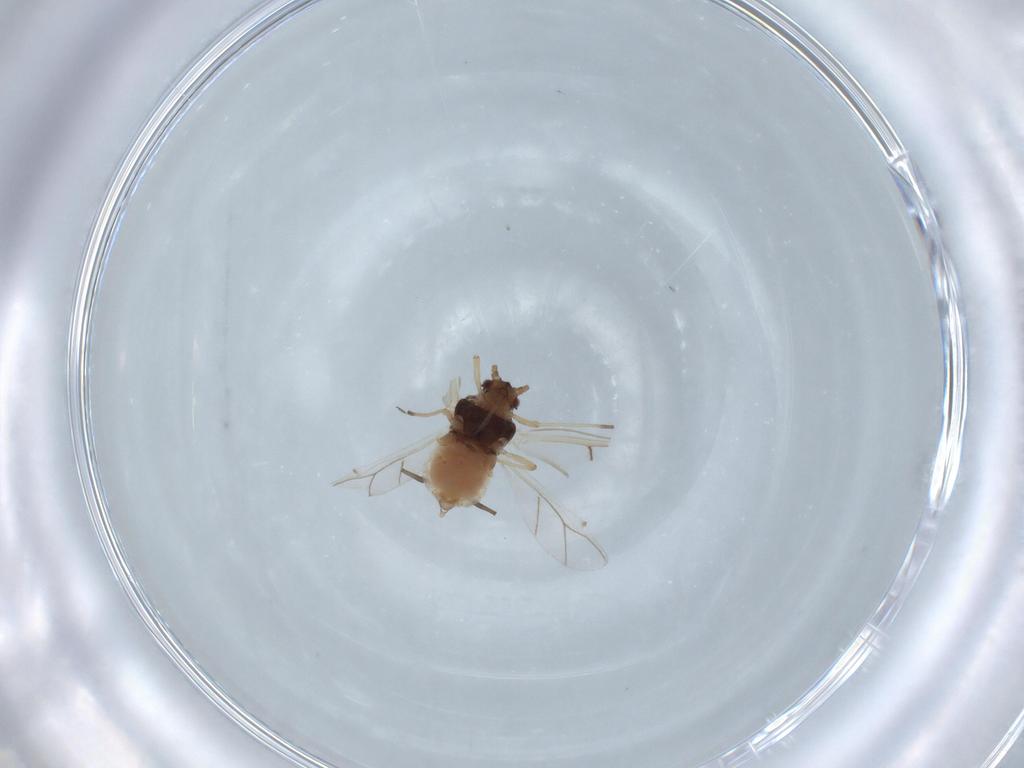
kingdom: Animalia
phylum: Arthropoda
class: Insecta
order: Hemiptera
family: Aphididae
